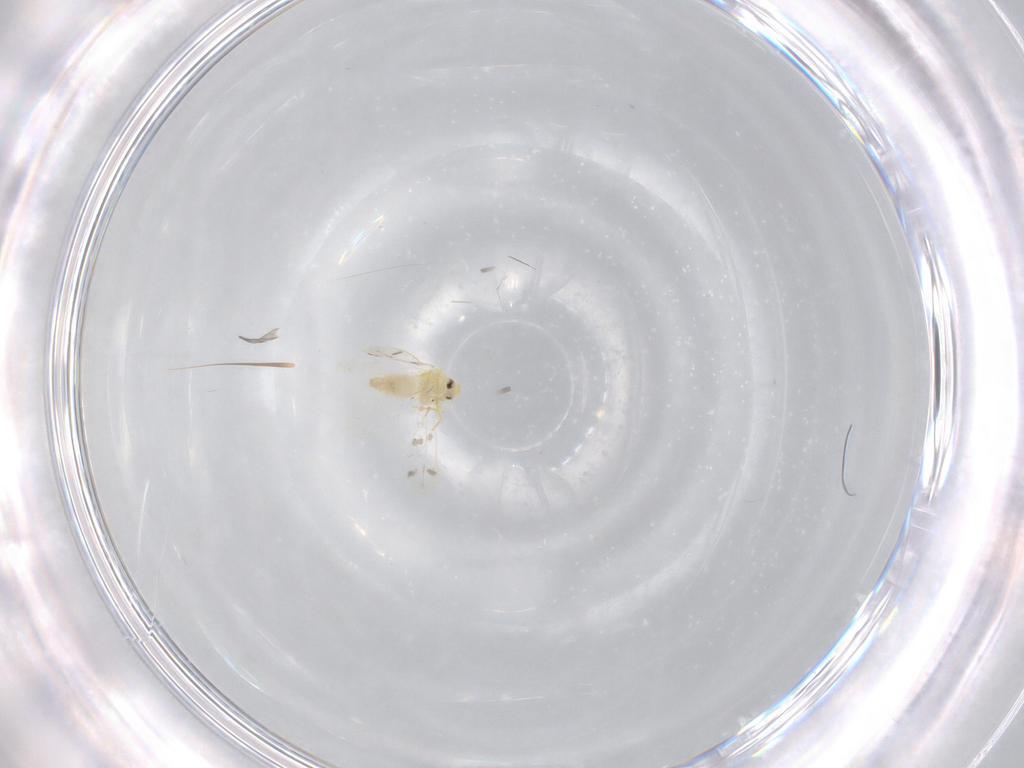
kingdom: Animalia
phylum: Arthropoda
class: Insecta
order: Hemiptera
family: Aleyrodidae
